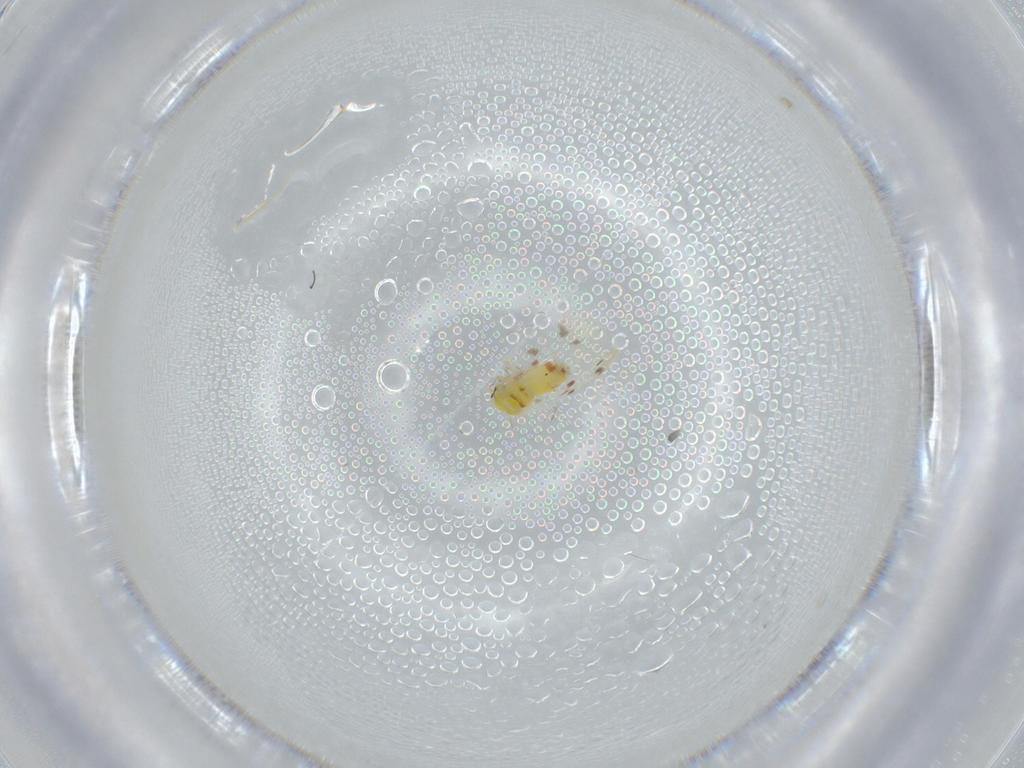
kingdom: Animalia
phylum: Arthropoda
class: Insecta
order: Hemiptera
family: Aleyrodidae
